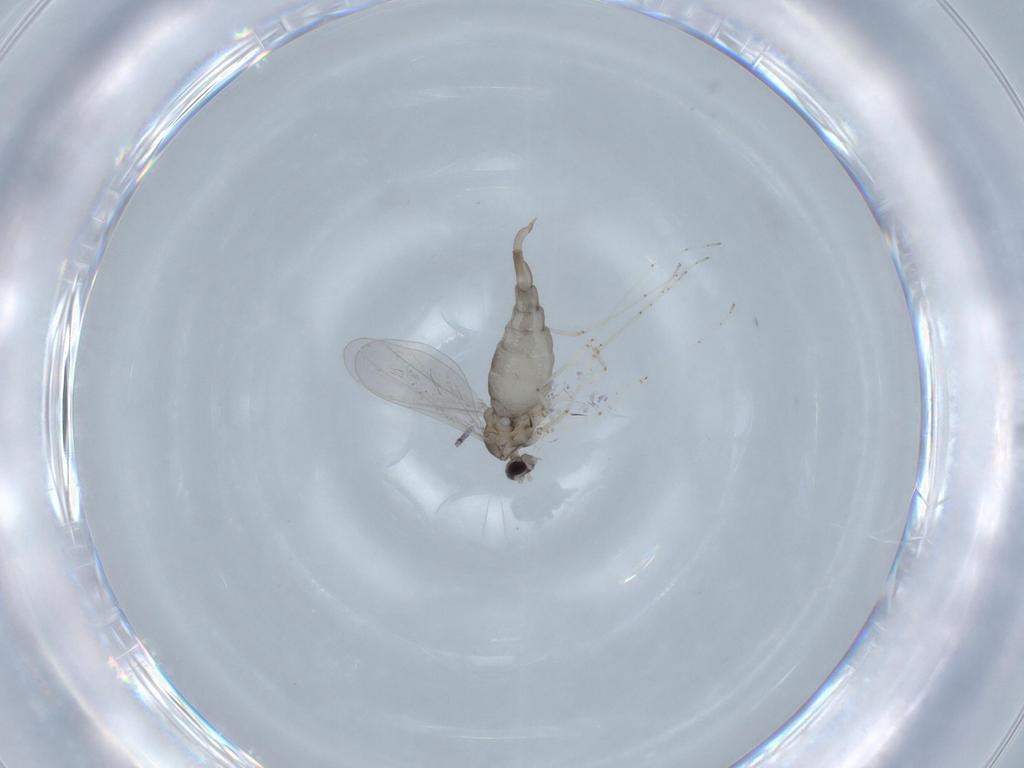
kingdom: Animalia
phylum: Arthropoda
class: Insecta
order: Diptera
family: Cecidomyiidae
